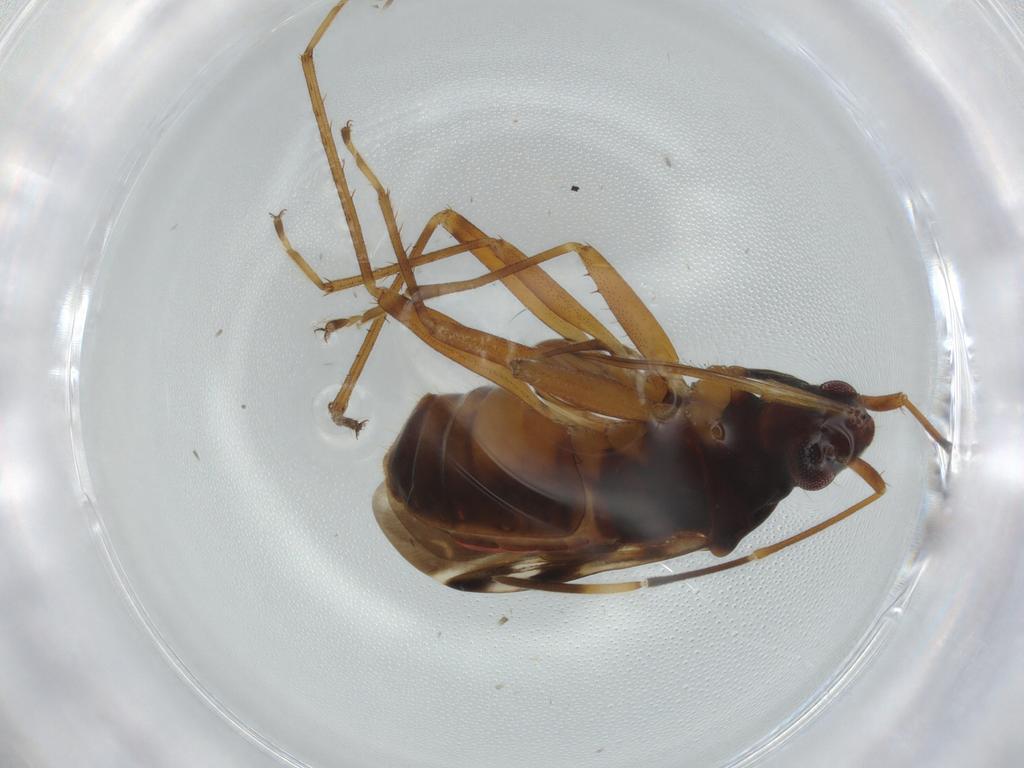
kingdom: Animalia
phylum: Arthropoda
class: Insecta
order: Hemiptera
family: Rhyparochromidae
